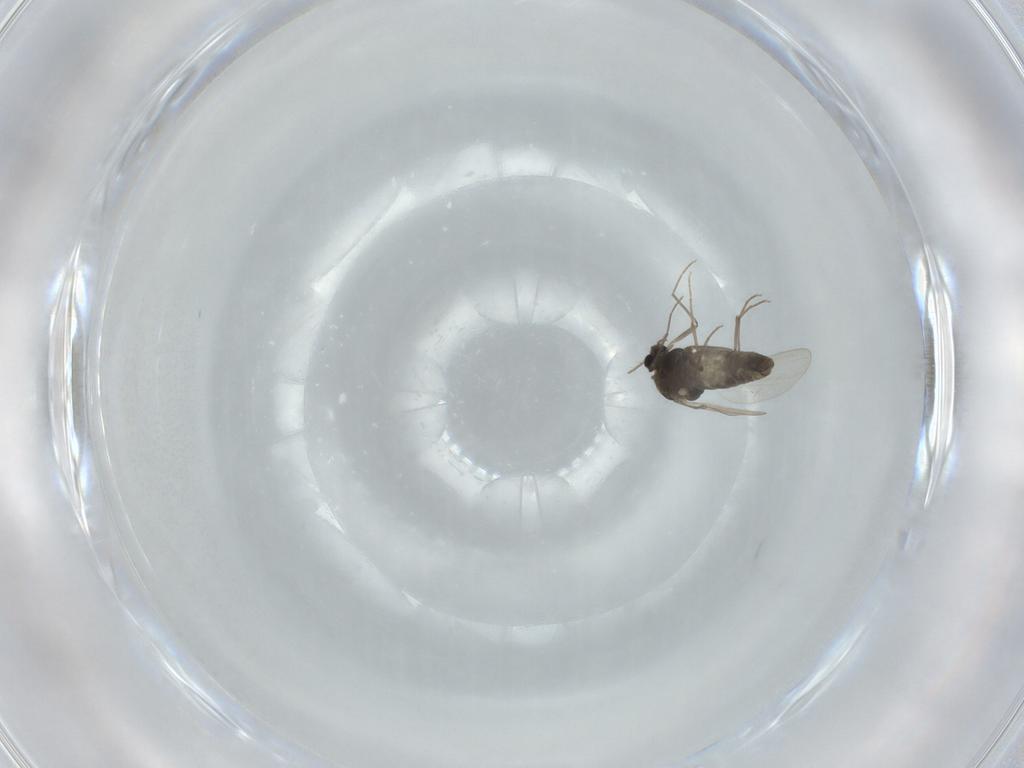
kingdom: Animalia
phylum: Arthropoda
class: Insecta
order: Diptera
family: Chironomidae
